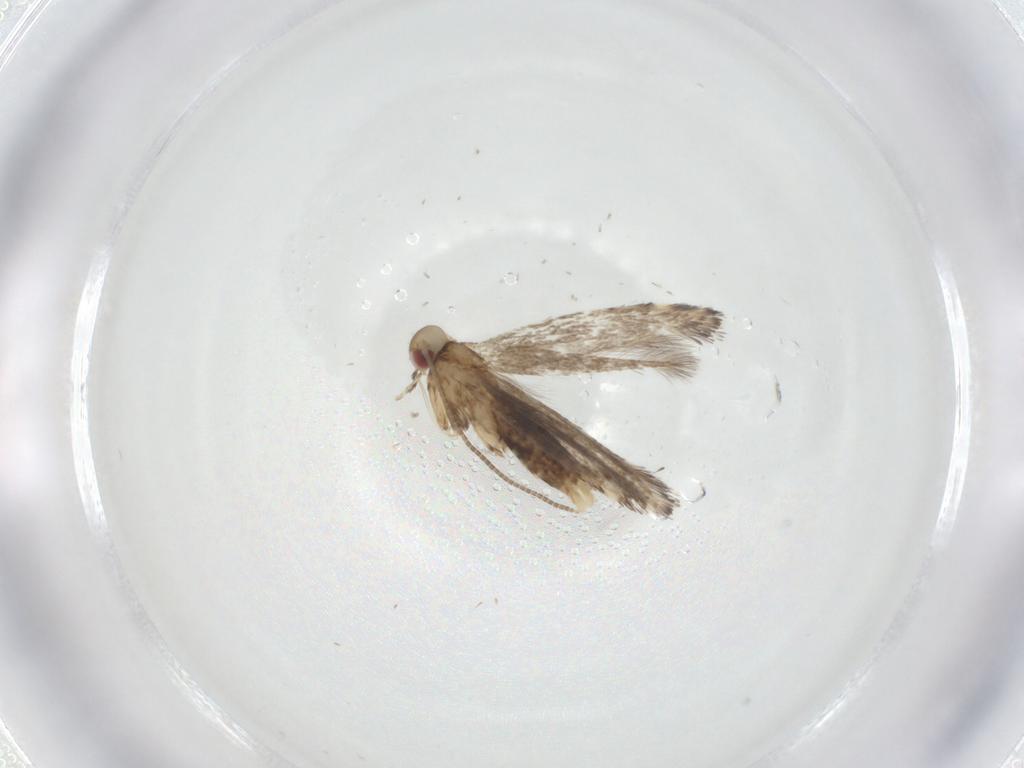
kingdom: Animalia
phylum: Arthropoda
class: Insecta
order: Lepidoptera
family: Gracillariidae
